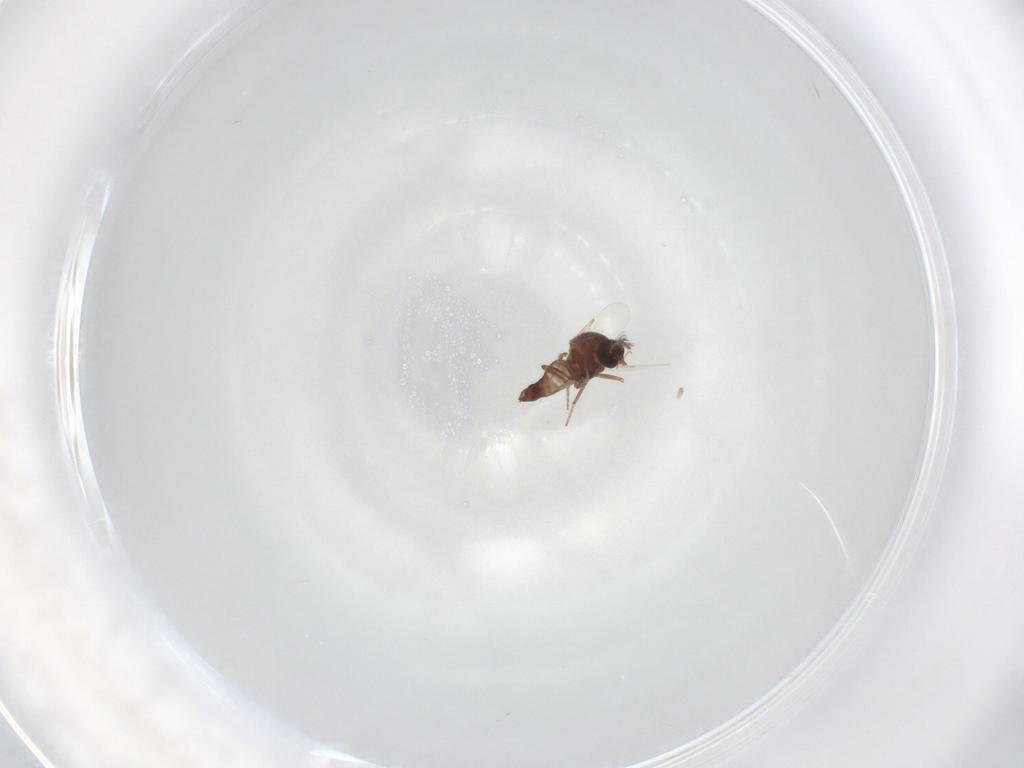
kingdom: Animalia
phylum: Arthropoda
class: Insecta
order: Diptera
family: Ceratopogonidae
